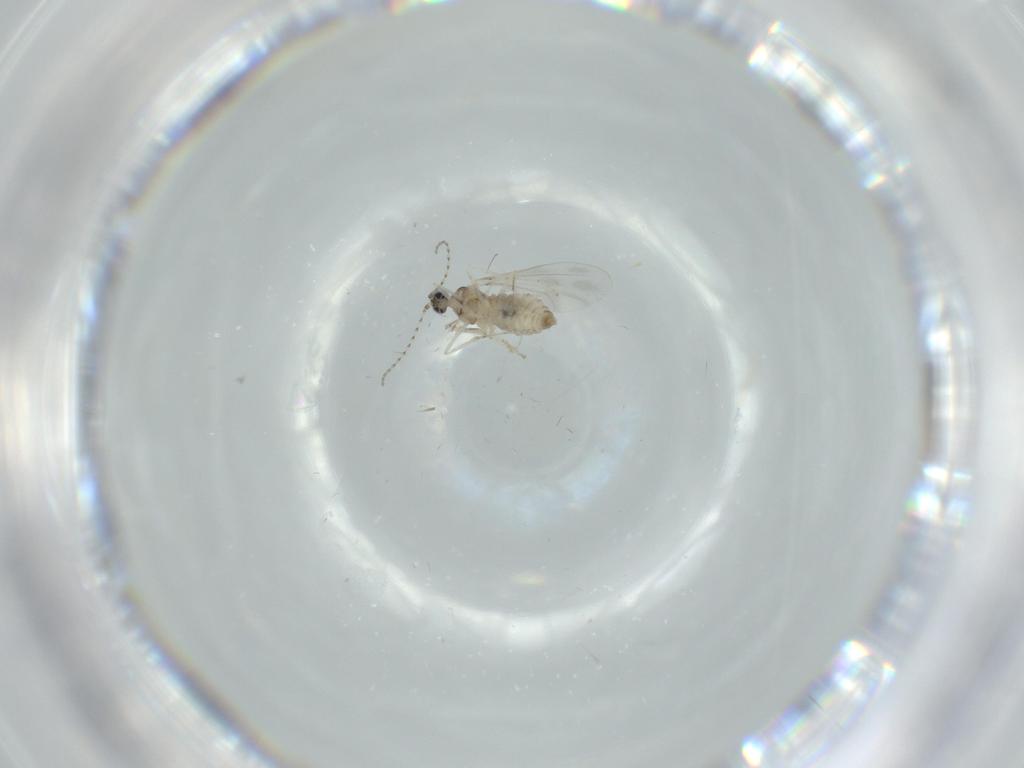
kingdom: Animalia
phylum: Arthropoda
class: Insecta
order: Diptera
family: Cecidomyiidae
